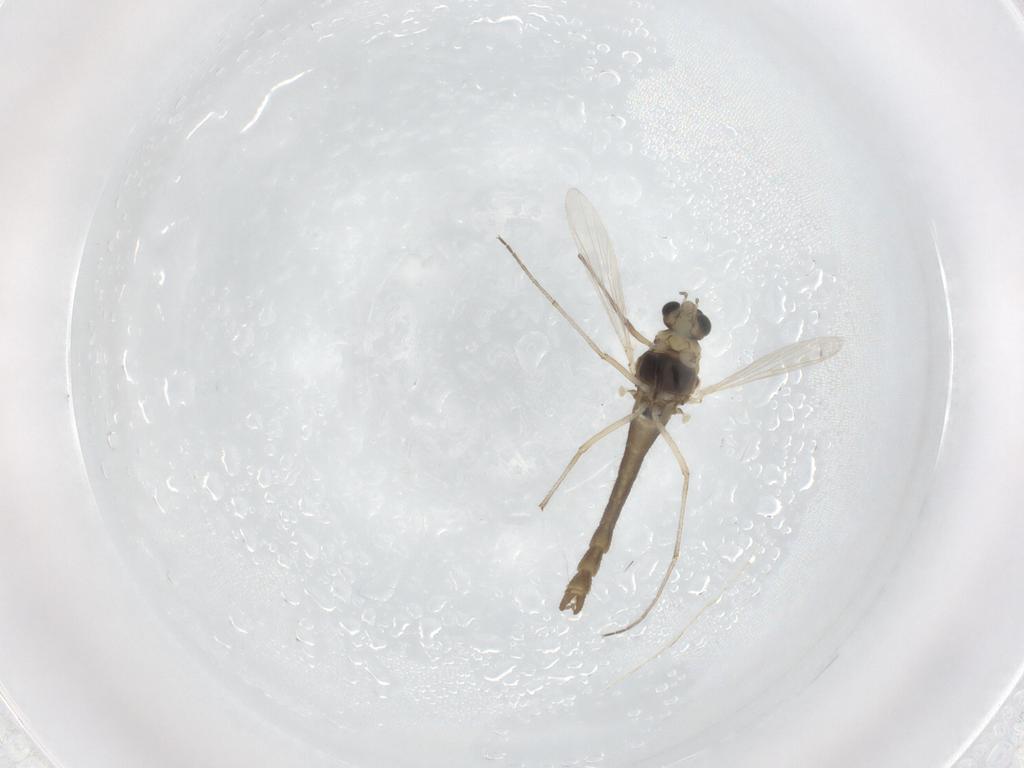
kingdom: Animalia
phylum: Arthropoda
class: Insecta
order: Diptera
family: Chironomidae
